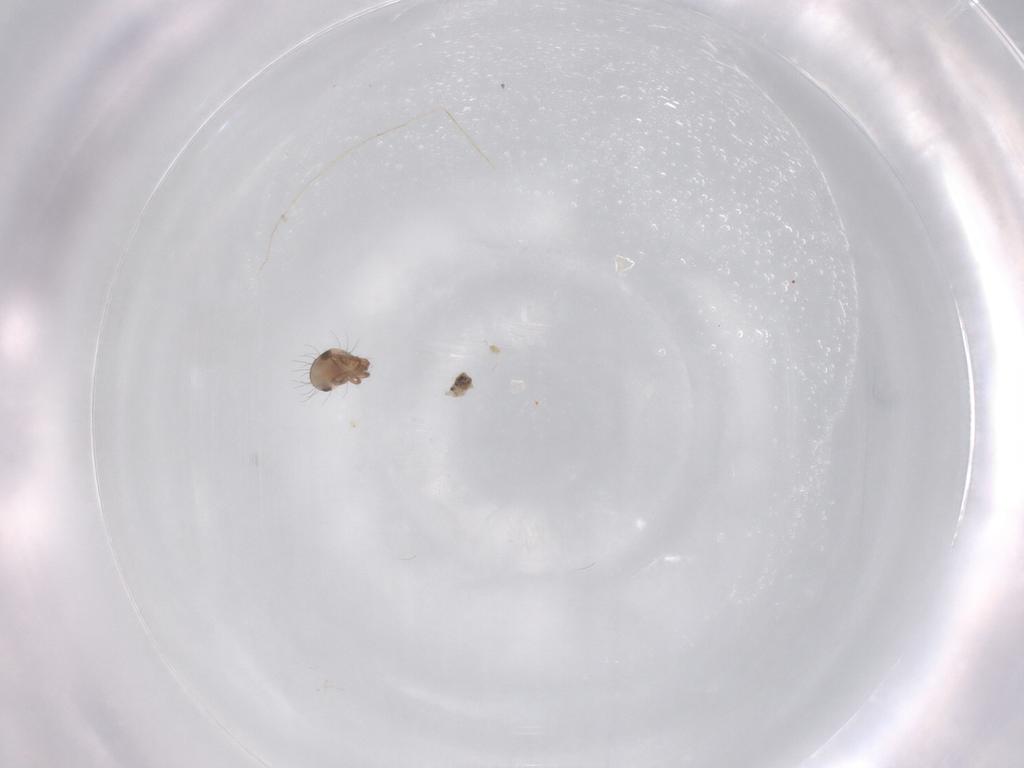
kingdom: Animalia
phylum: Arthropoda
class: Arachnida
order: Sarcoptiformes
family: Ceratozetidae
